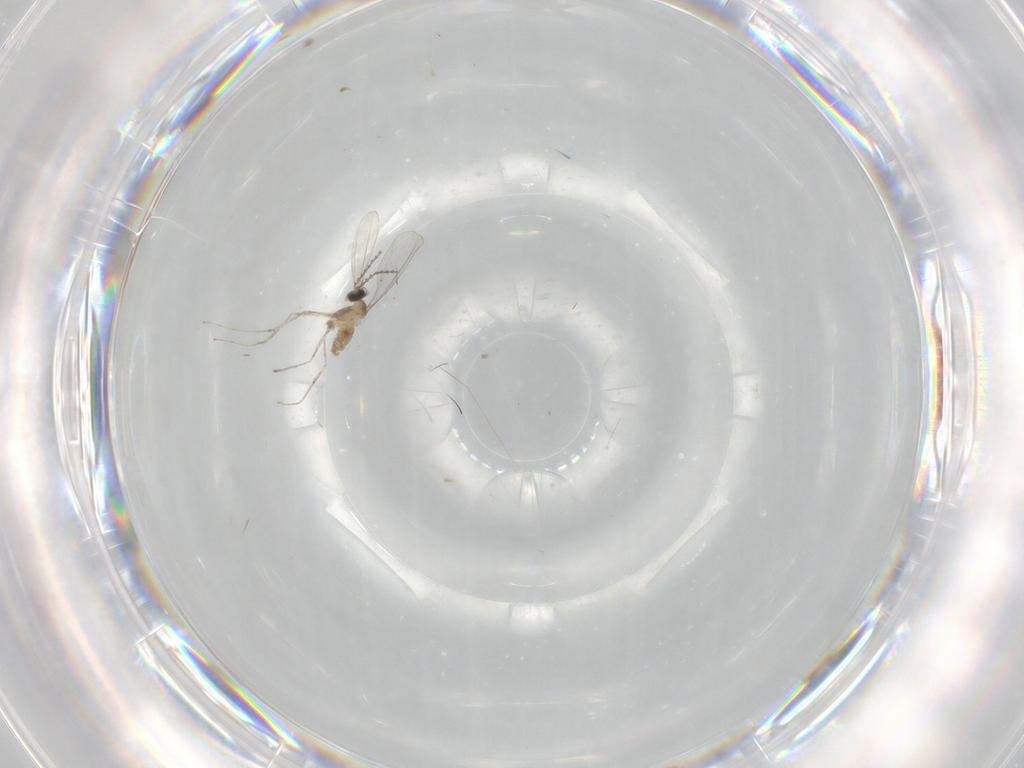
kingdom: Animalia
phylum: Arthropoda
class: Insecta
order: Diptera
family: Cecidomyiidae
